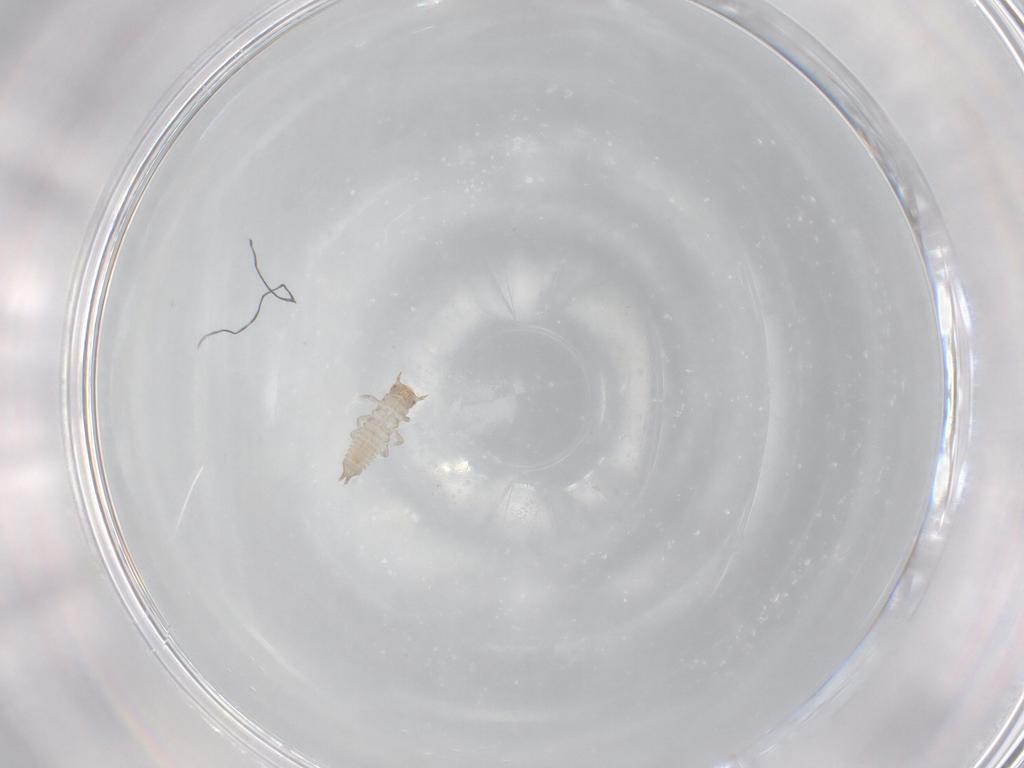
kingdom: Animalia
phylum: Arthropoda
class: Insecta
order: Coleoptera
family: Phalacridae
